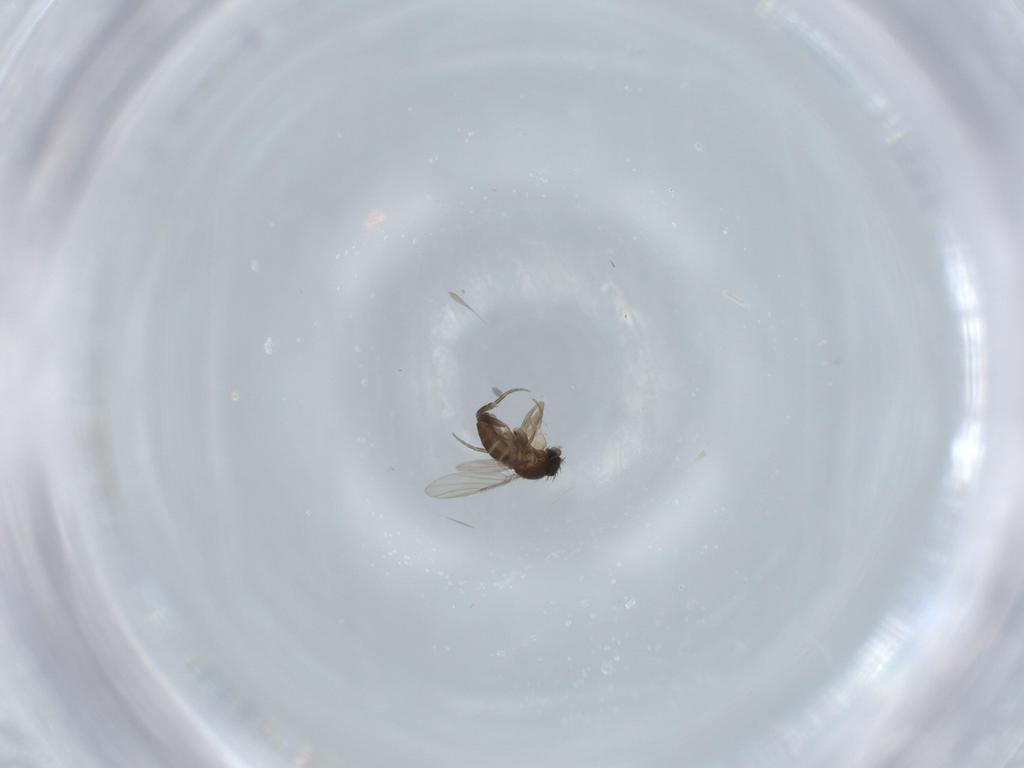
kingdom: Animalia
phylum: Arthropoda
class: Insecta
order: Diptera
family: Phoridae
